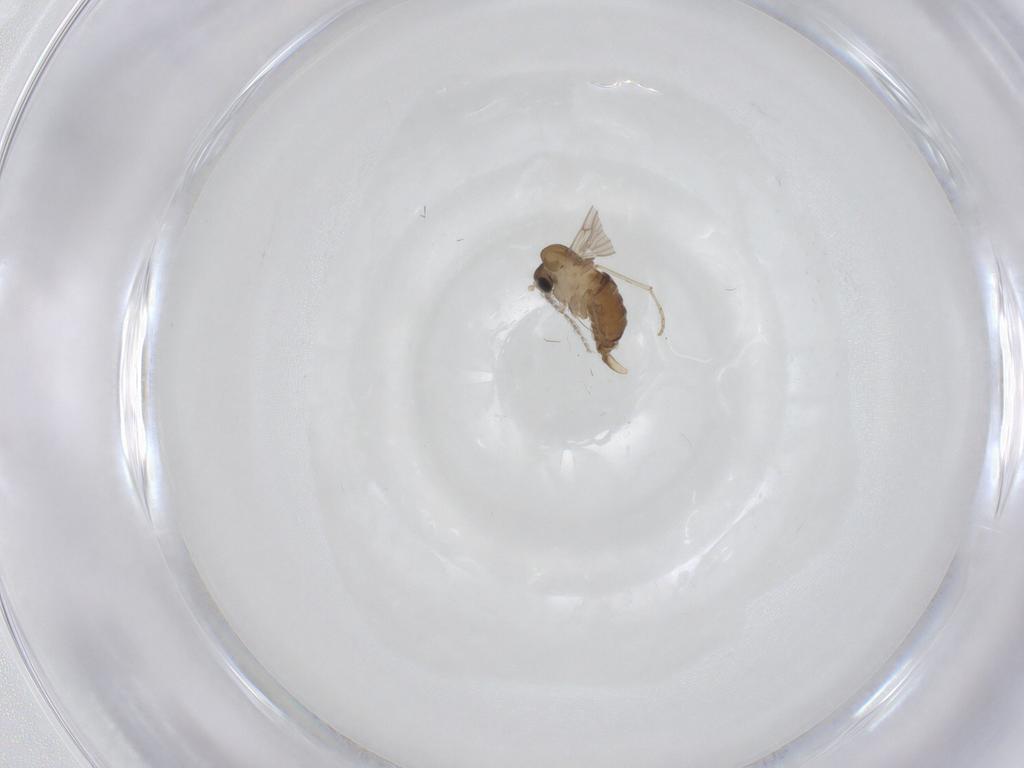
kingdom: Animalia
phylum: Arthropoda
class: Insecta
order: Diptera
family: Psychodidae
